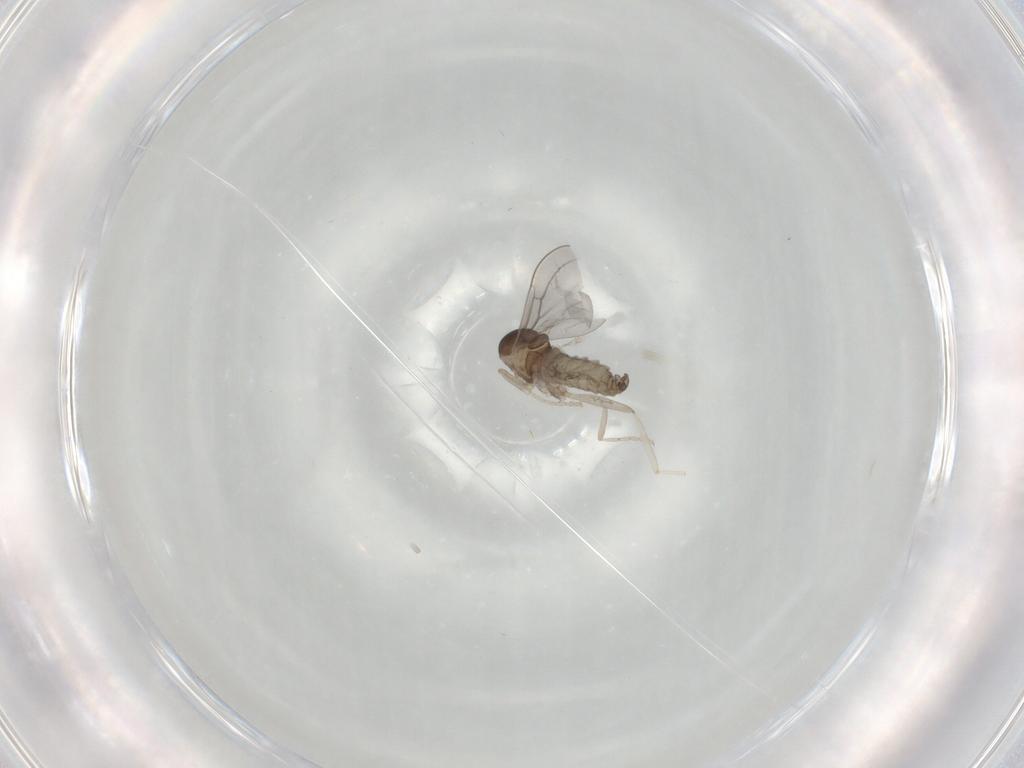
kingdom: Animalia
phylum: Arthropoda
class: Insecta
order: Diptera
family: Cecidomyiidae
